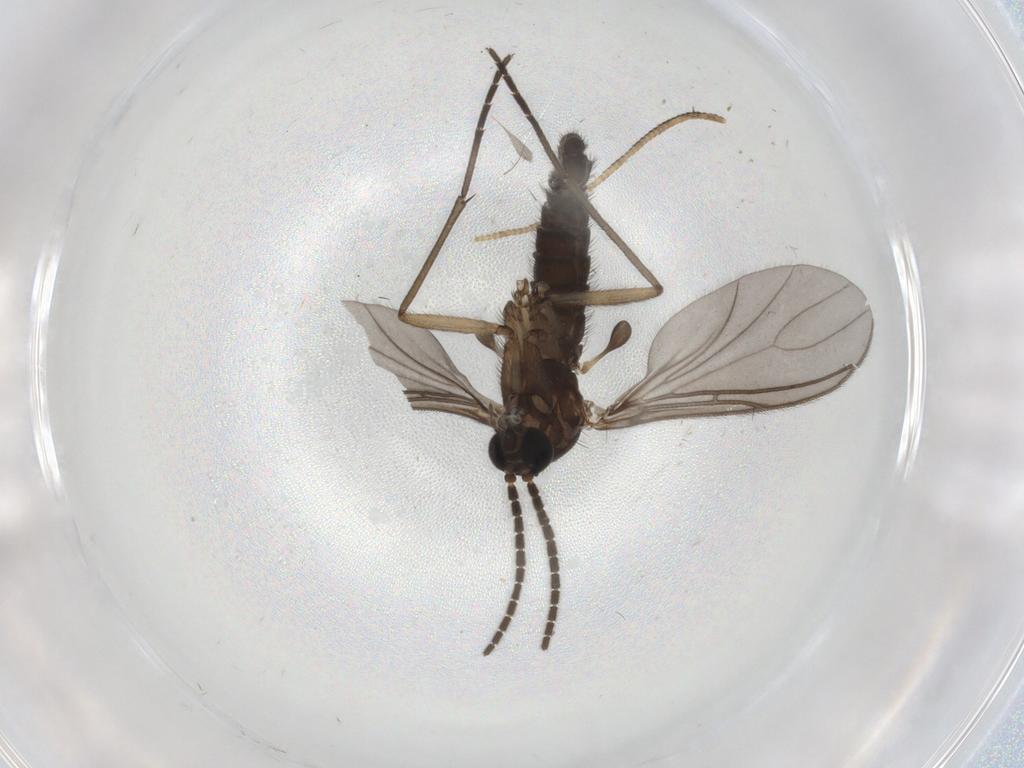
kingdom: Animalia
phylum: Arthropoda
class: Insecta
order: Diptera
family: Sciaridae
